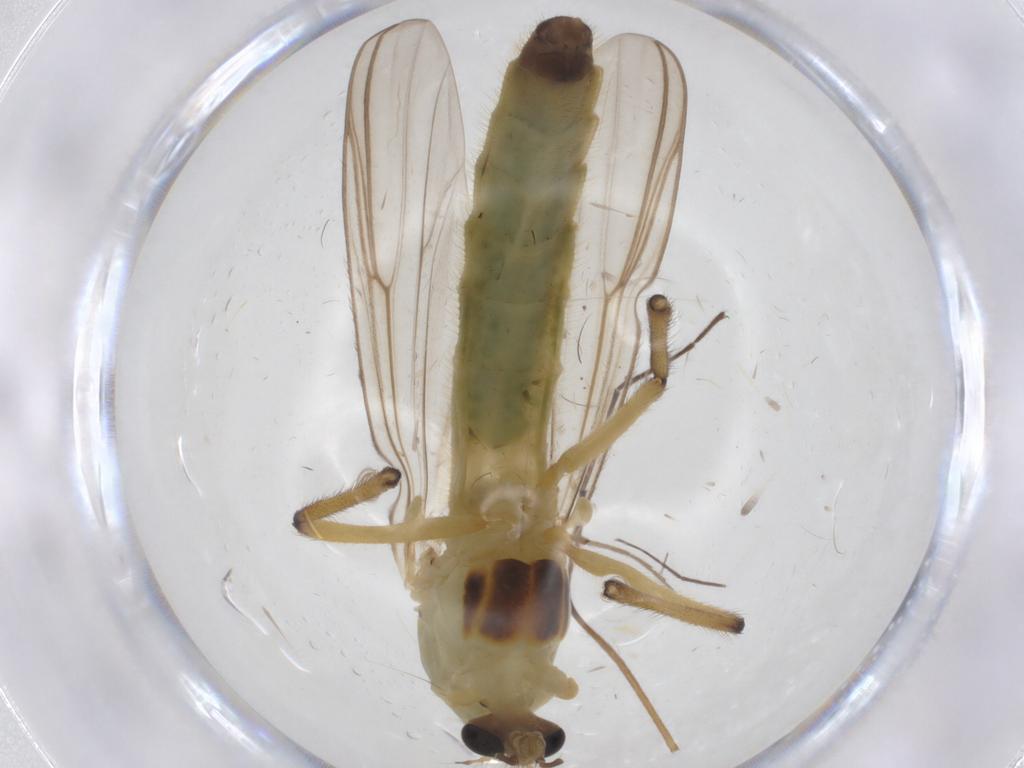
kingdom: Animalia
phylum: Arthropoda
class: Insecta
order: Diptera
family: Chironomidae
